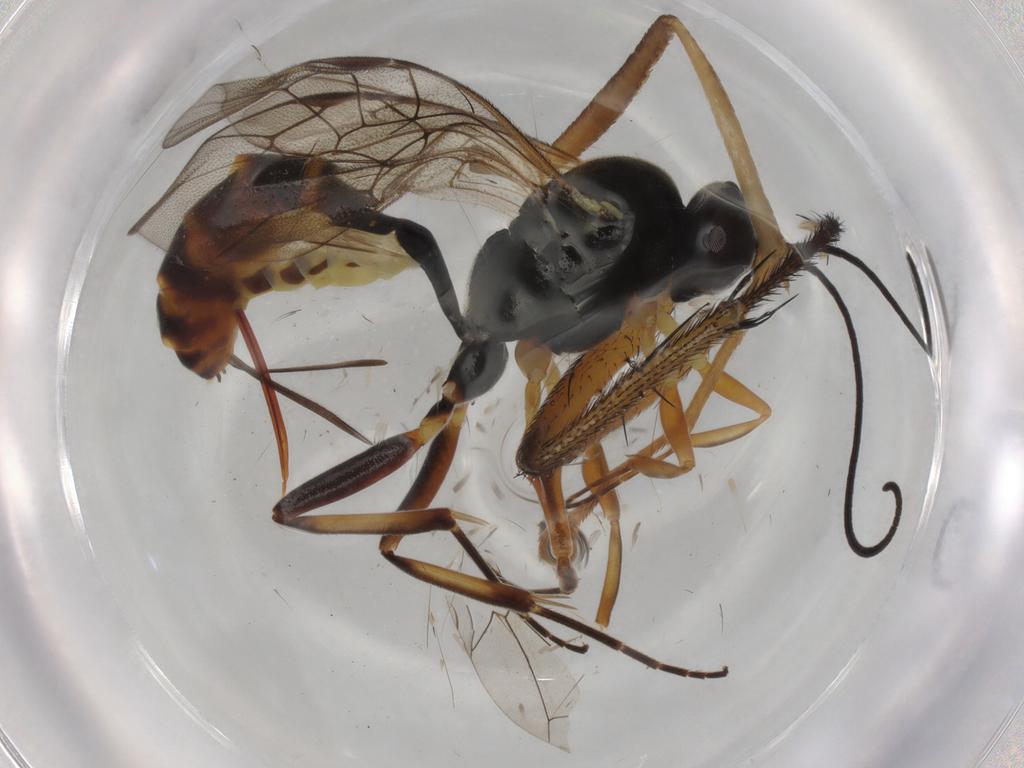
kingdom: Animalia
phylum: Arthropoda
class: Insecta
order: Hymenoptera
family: Ichneumonidae
